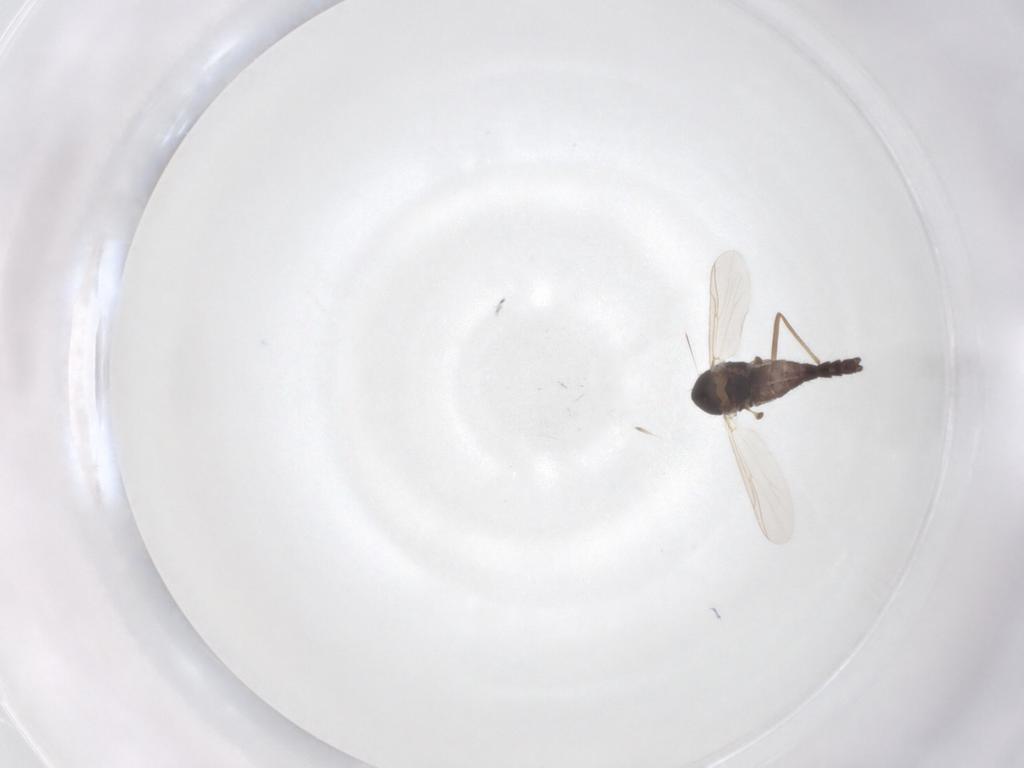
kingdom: Animalia
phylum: Arthropoda
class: Insecta
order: Diptera
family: Chironomidae
